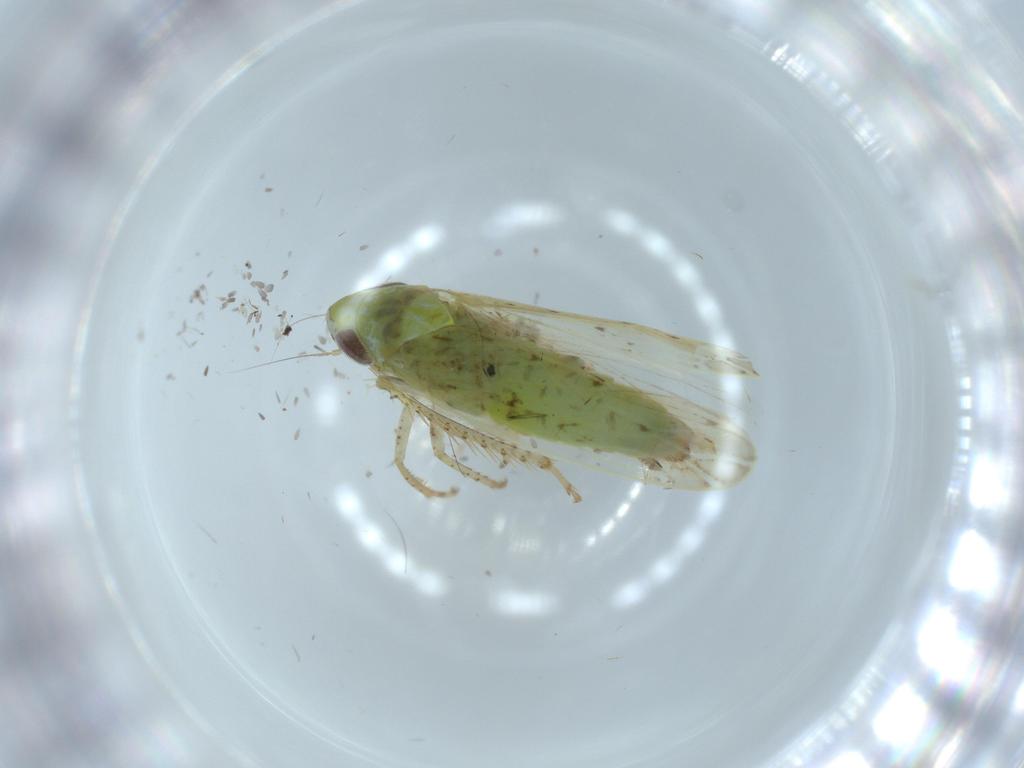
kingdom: Animalia
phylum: Arthropoda
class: Insecta
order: Hemiptera
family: Cicadellidae
